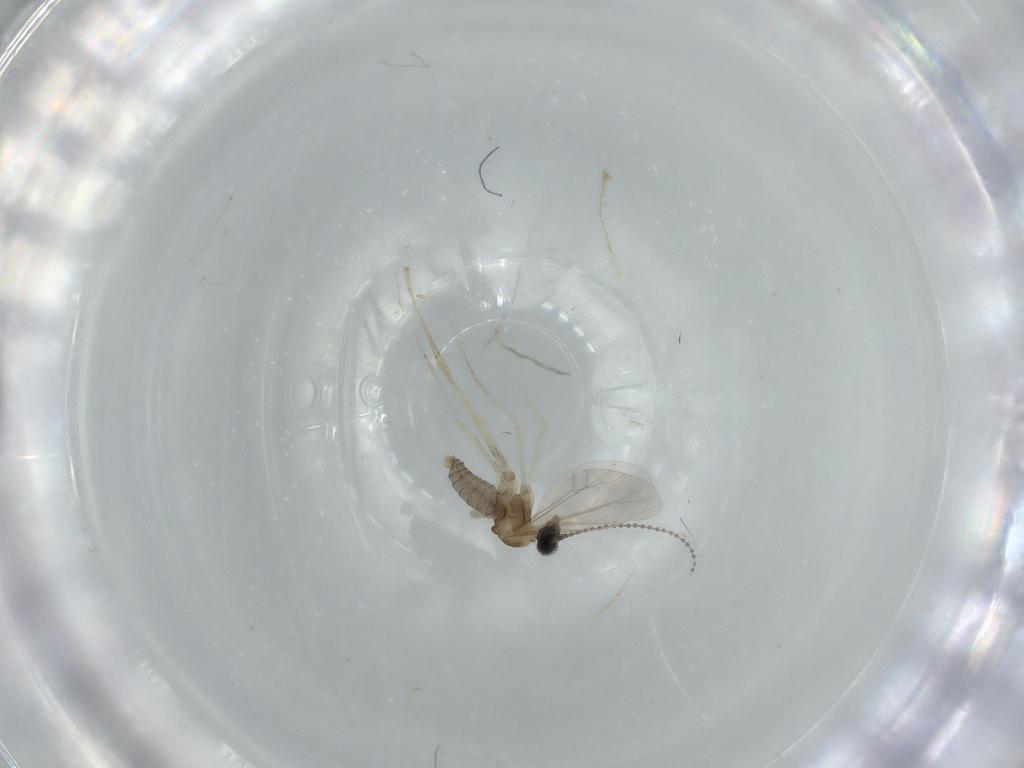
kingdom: Animalia
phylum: Arthropoda
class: Insecta
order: Diptera
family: Cecidomyiidae
